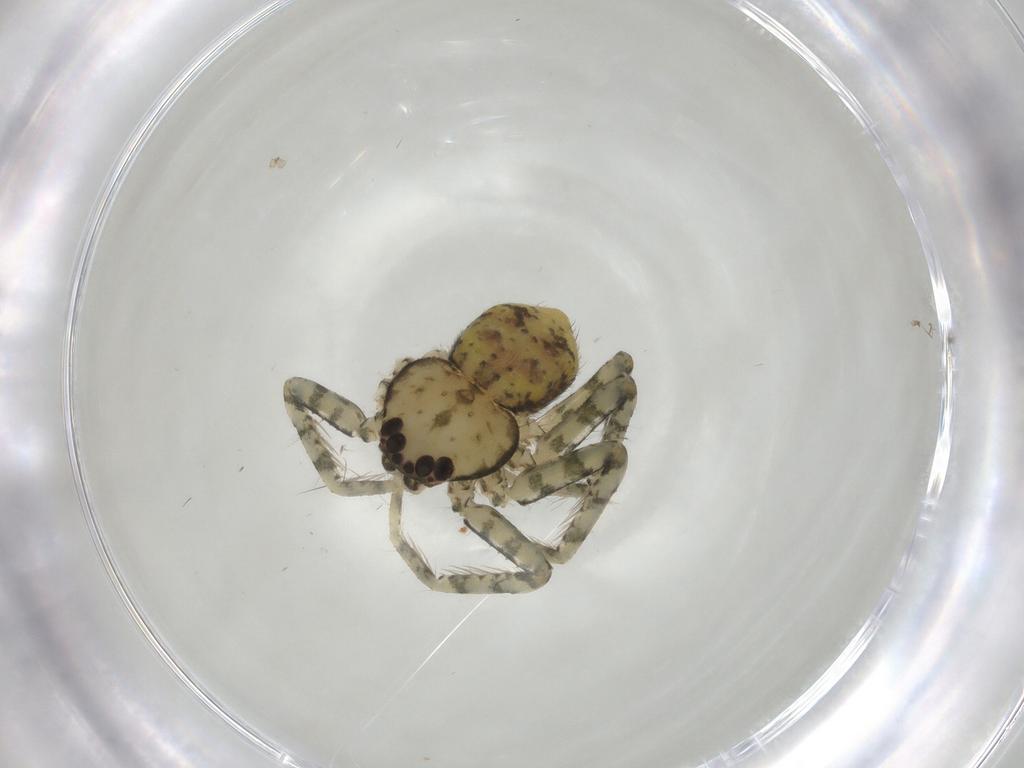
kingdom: Animalia
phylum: Arthropoda
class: Arachnida
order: Araneae
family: Selenopidae
